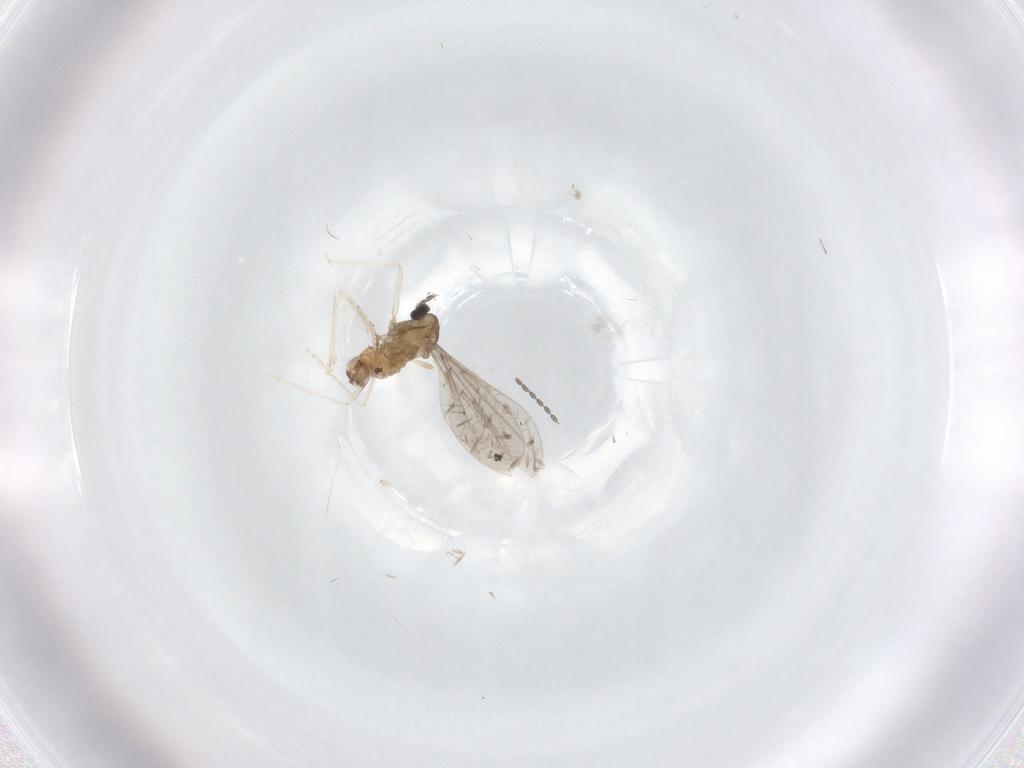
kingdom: Animalia
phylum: Arthropoda
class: Insecta
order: Diptera
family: Cecidomyiidae
